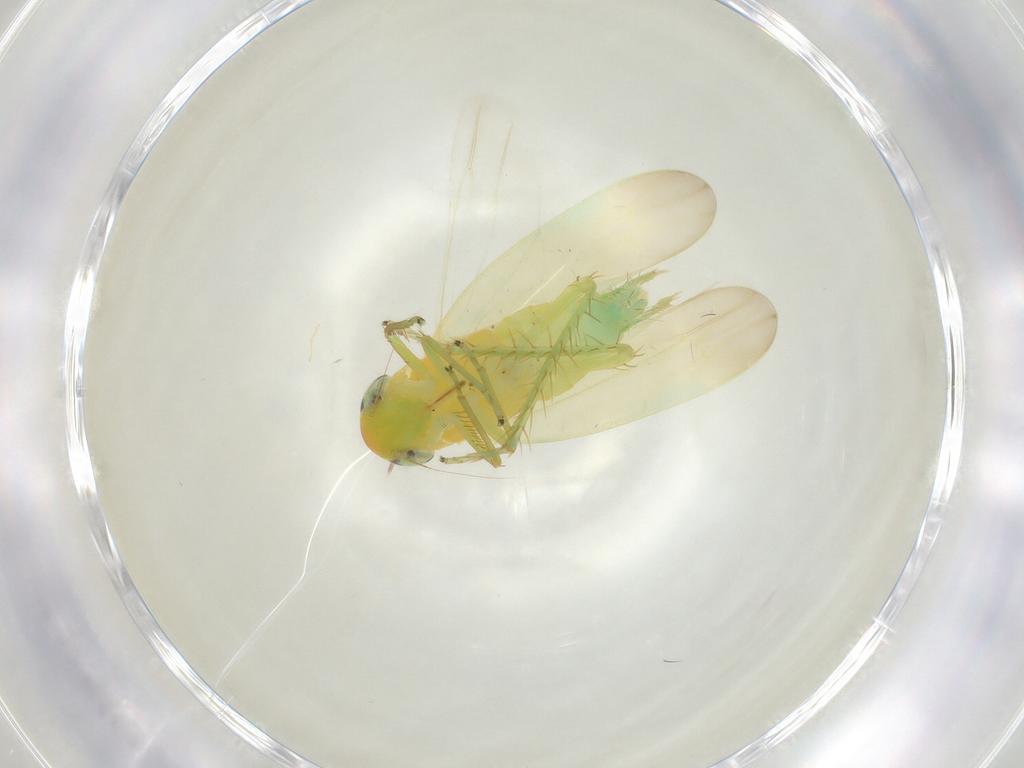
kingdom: Animalia
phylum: Arthropoda
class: Insecta
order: Hemiptera
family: Cicadellidae
